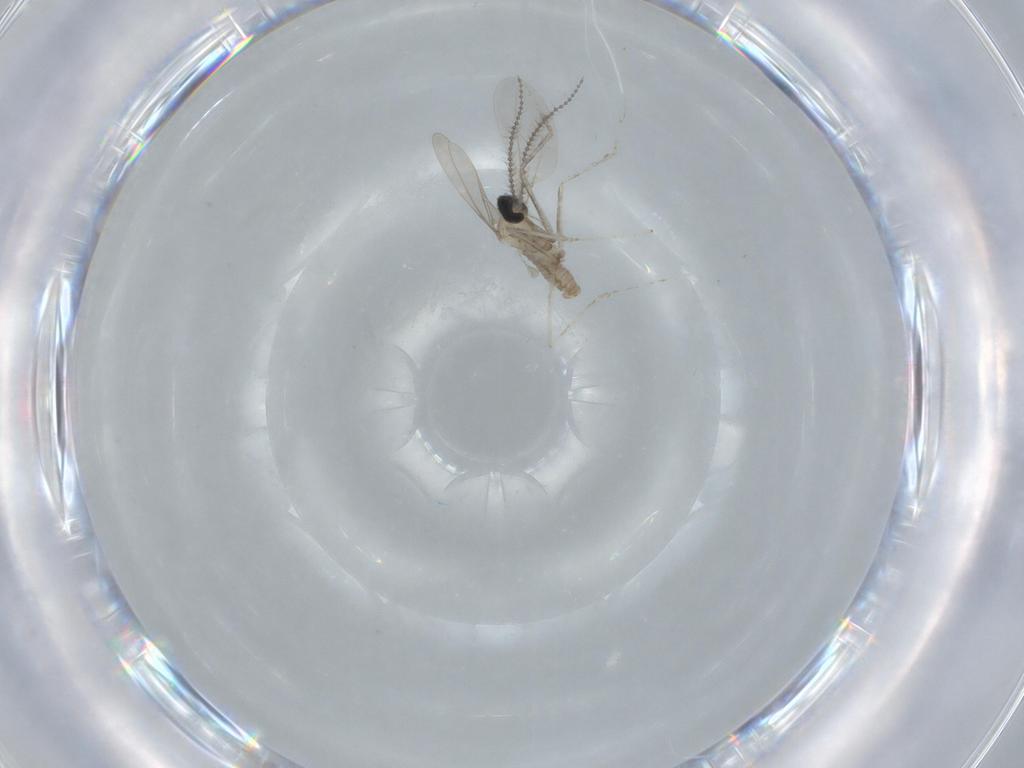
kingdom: Animalia
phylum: Arthropoda
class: Insecta
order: Diptera
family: Cecidomyiidae
